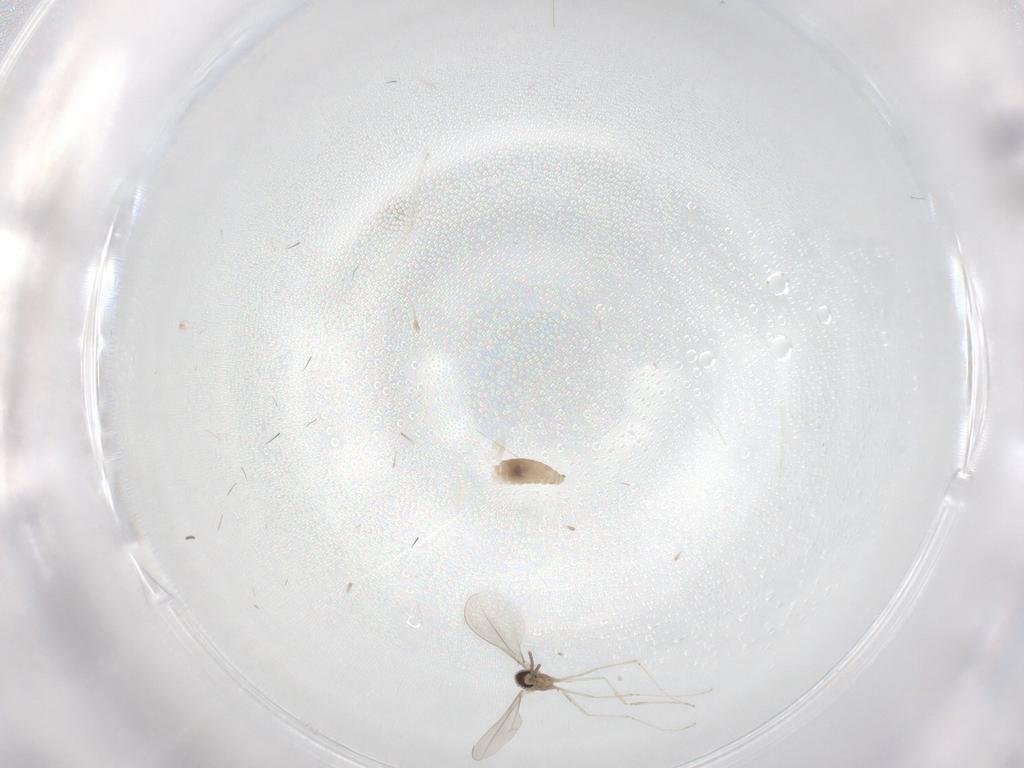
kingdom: Animalia
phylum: Arthropoda
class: Insecta
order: Diptera
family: Cecidomyiidae
